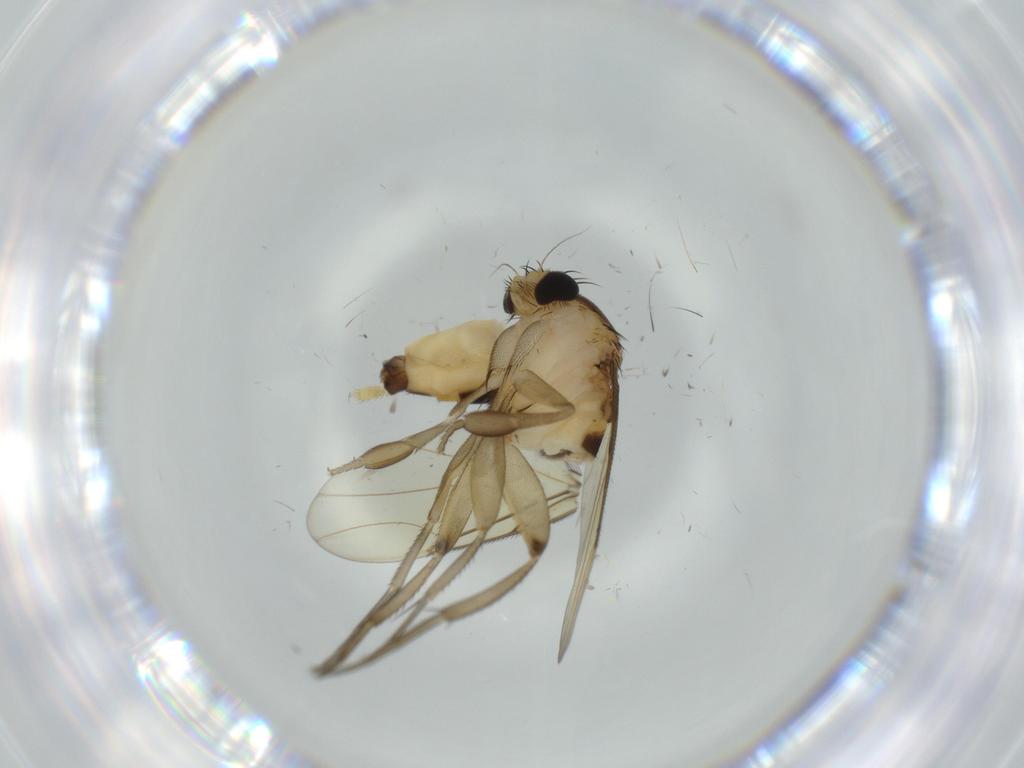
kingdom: Animalia
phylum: Arthropoda
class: Insecta
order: Diptera
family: Phoridae
